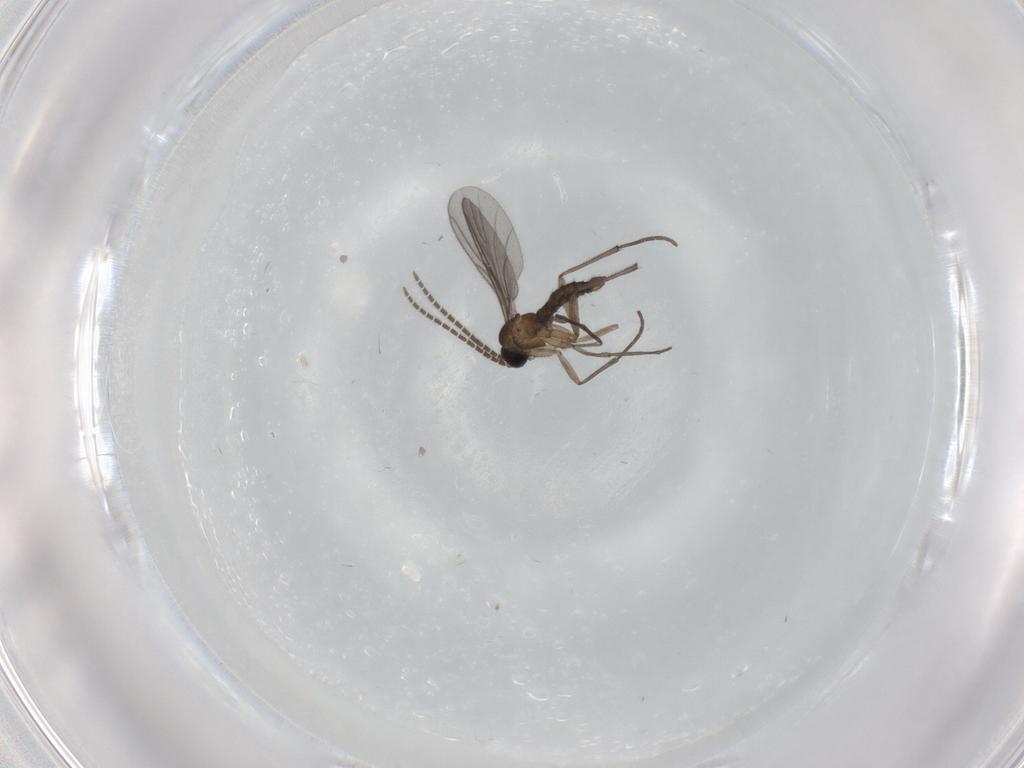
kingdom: Animalia
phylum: Arthropoda
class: Insecta
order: Diptera
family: Sciaridae
